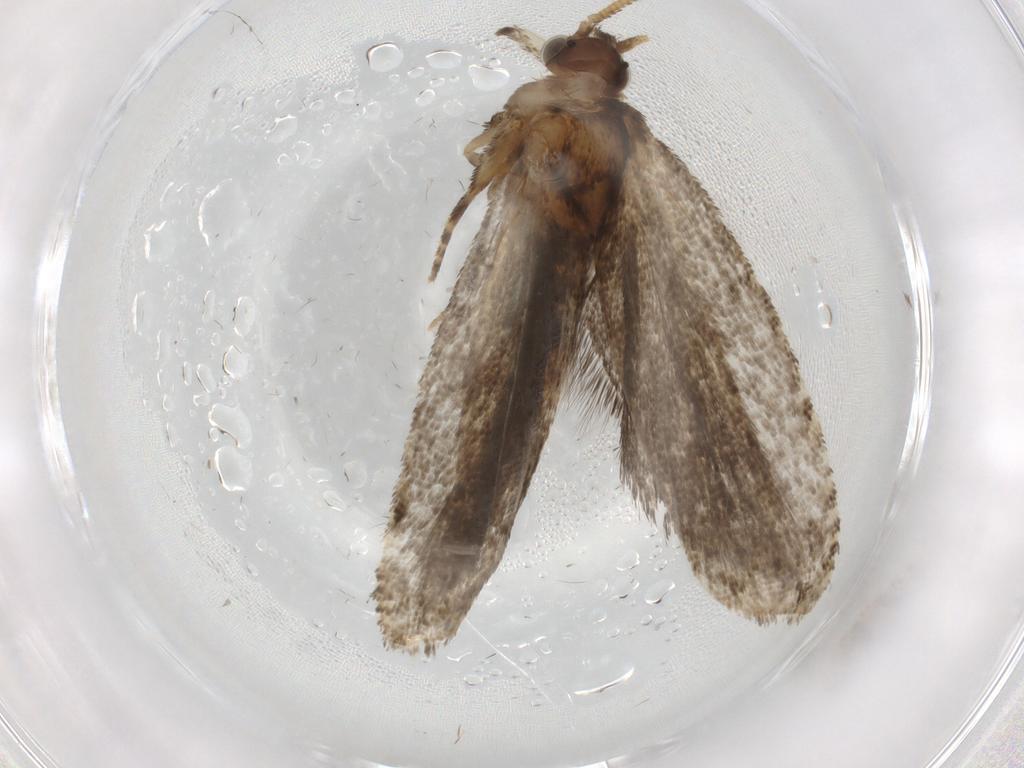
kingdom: Animalia
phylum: Arthropoda
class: Insecta
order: Lepidoptera
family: Tortricidae
